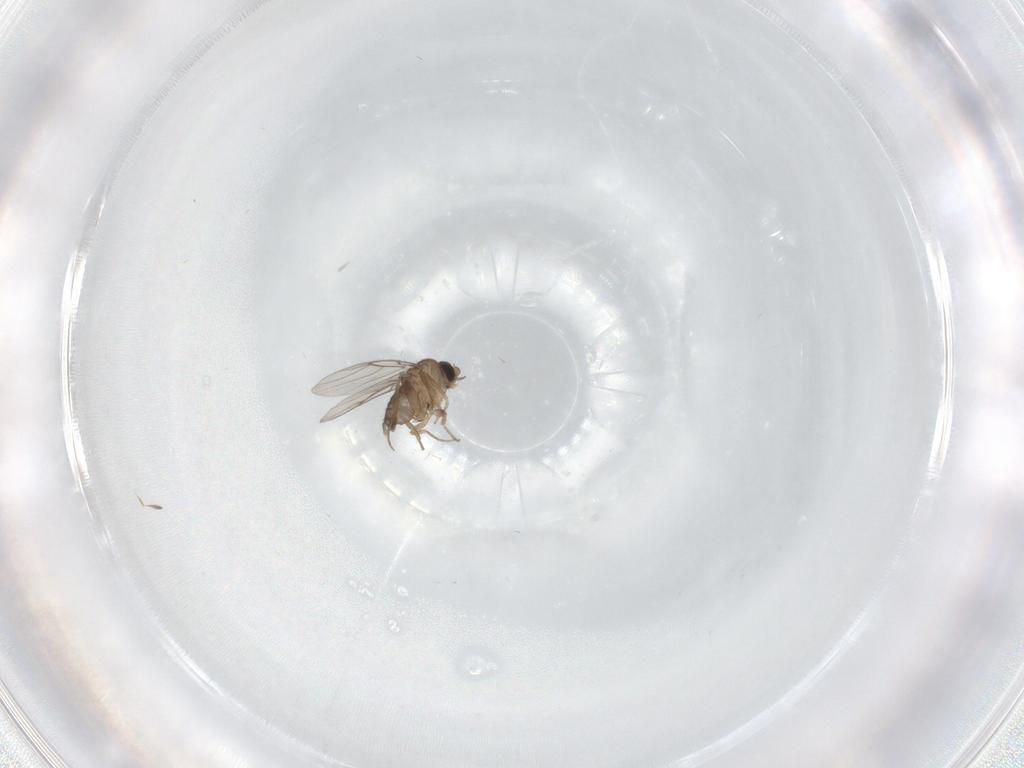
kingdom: Animalia
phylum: Arthropoda
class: Insecta
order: Diptera
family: Phoridae
